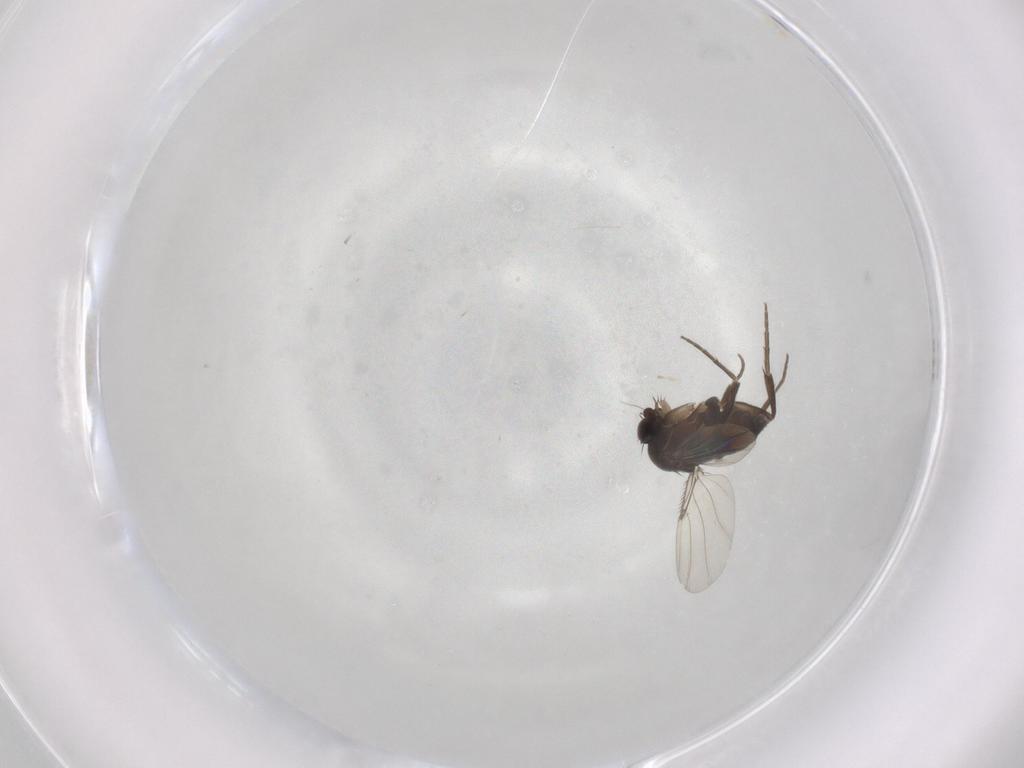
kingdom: Animalia
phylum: Arthropoda
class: Insecta
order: Diptera
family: Phoridae
